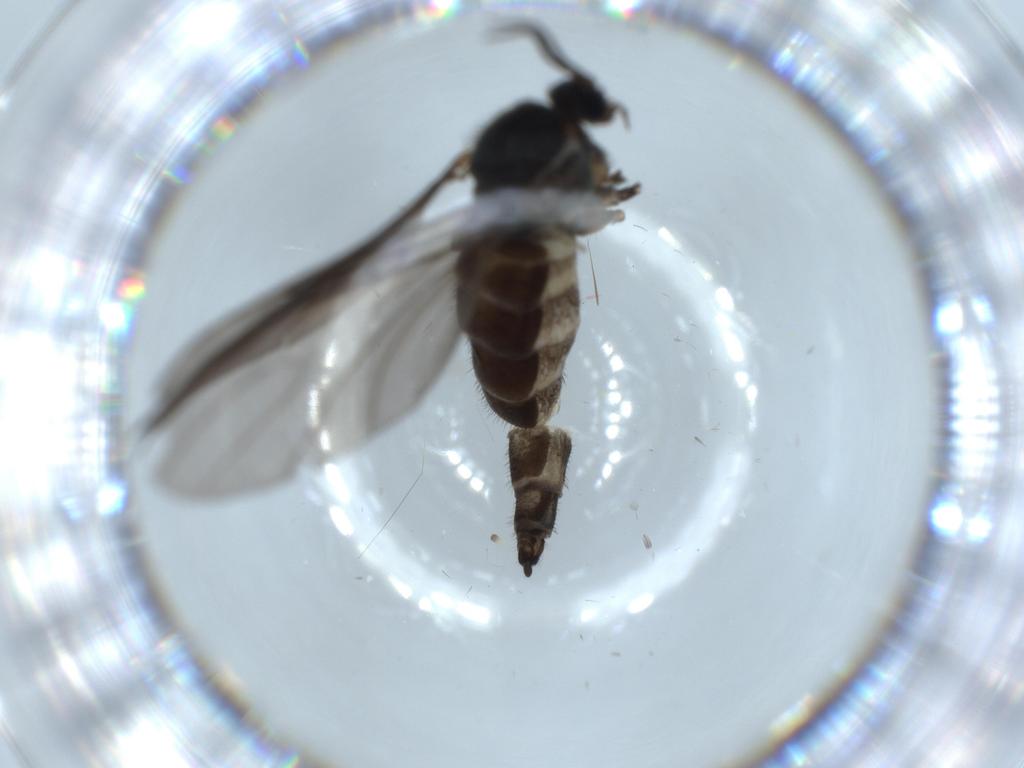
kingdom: Animalia
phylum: Arthropoda
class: Insecta
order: Diptera
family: Sciaridae
